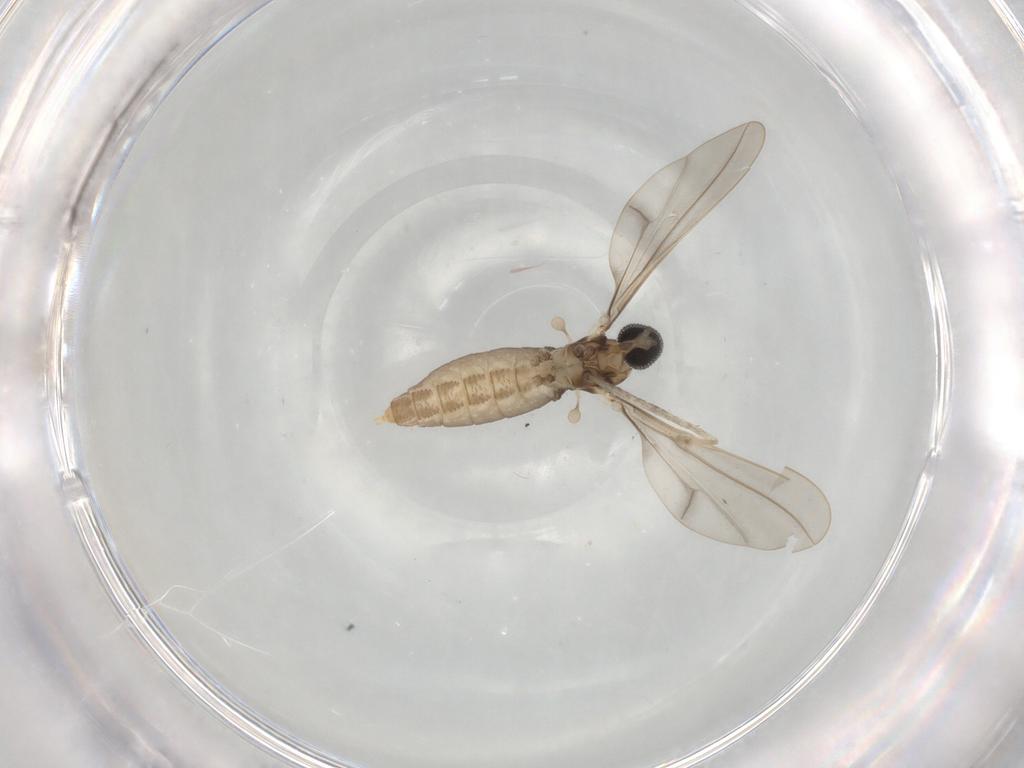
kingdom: Animalia
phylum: Arthropoda
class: Insecta
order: Diptera
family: Cecidomyiidae
